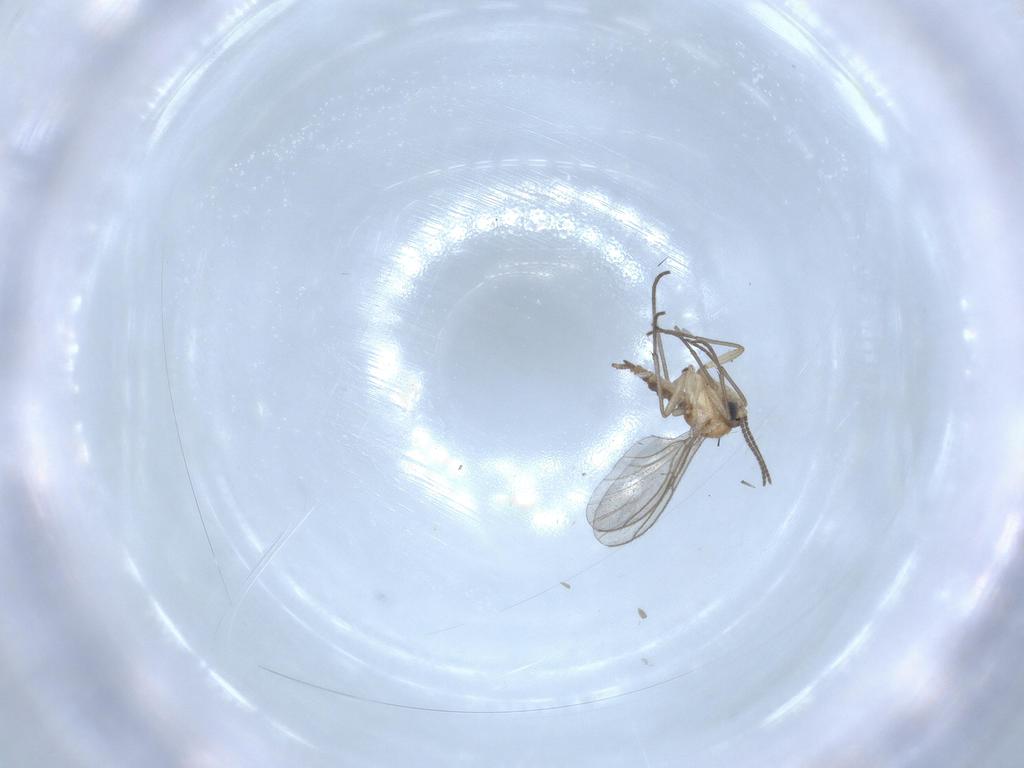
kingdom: Animalia
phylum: Arthropoda
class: Insecta
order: Diptera
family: Sciaridae
